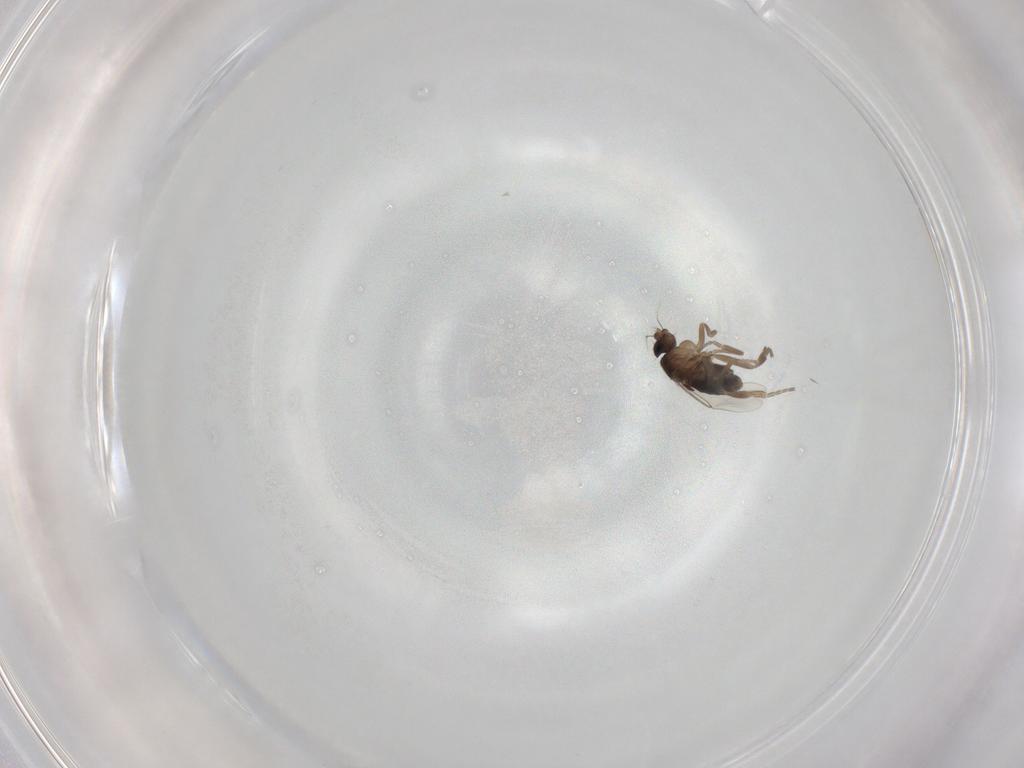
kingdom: Animalia
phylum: Arthropoda
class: Insecta
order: Diptera
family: Phoridae
